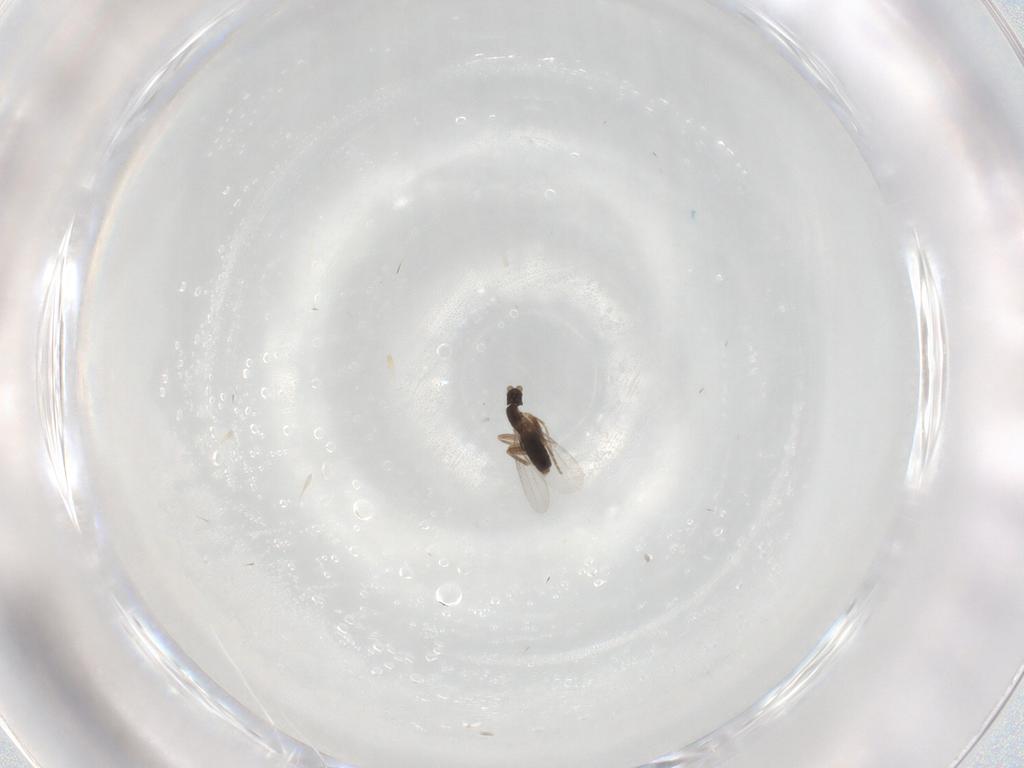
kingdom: Animalia
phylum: Arthropoda
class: Insecta
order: Diptera
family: Phoridae
